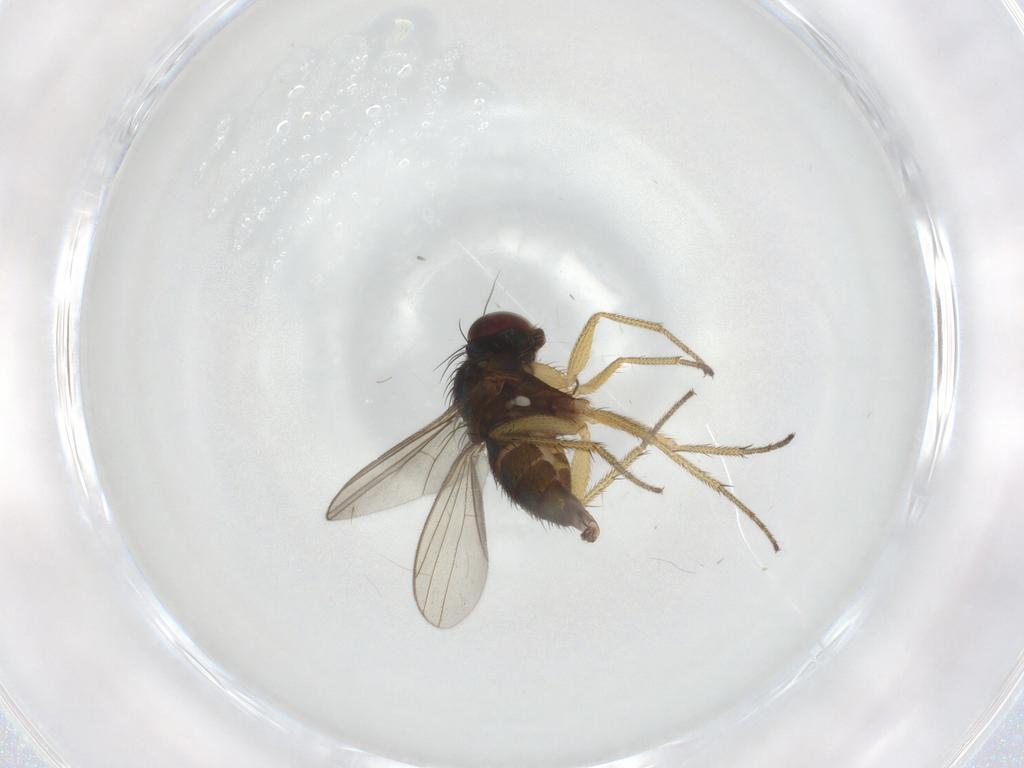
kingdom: Animalia
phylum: Arthropoda
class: Insecta
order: Diptera
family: Dolichopodidae
